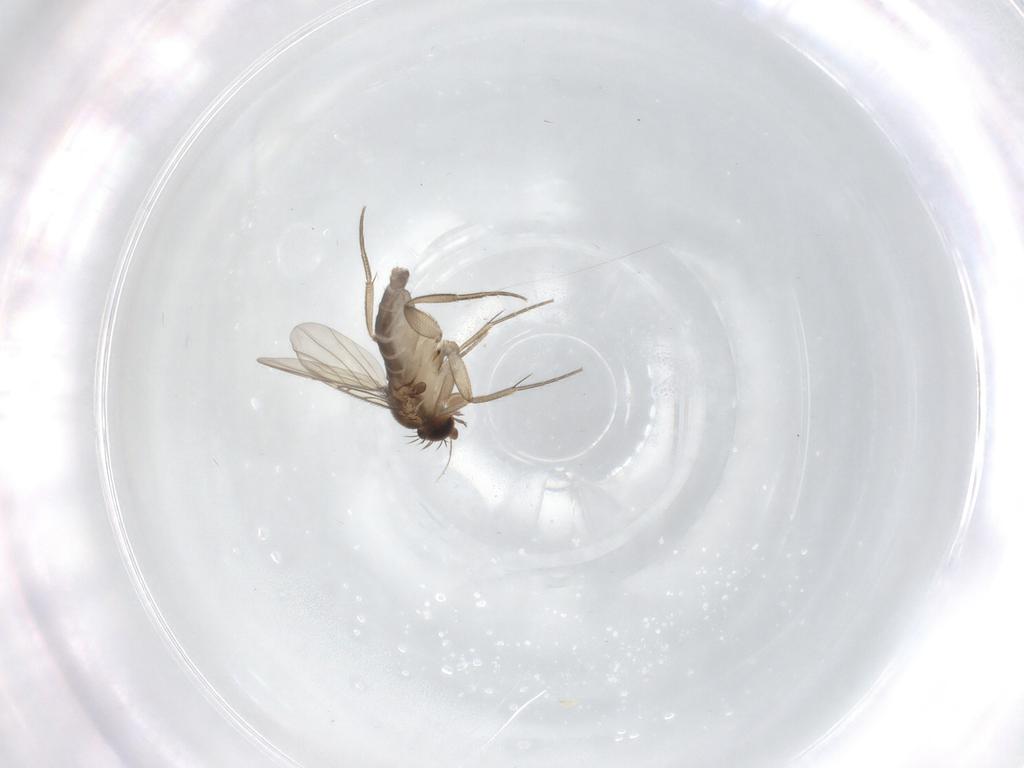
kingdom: Animalia
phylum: Arthropoda
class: Insecta
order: Diptera
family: Phoridae
